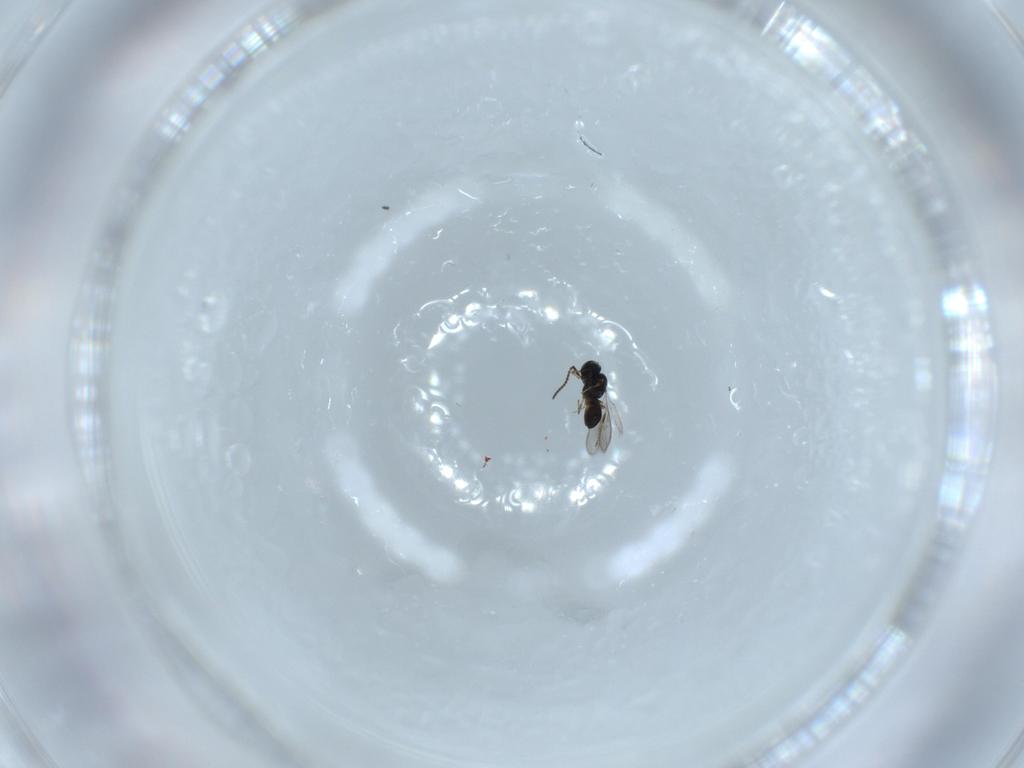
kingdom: Animalia
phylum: Arthropoda
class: Insecta
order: Hymenoptera
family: Scelionidae
